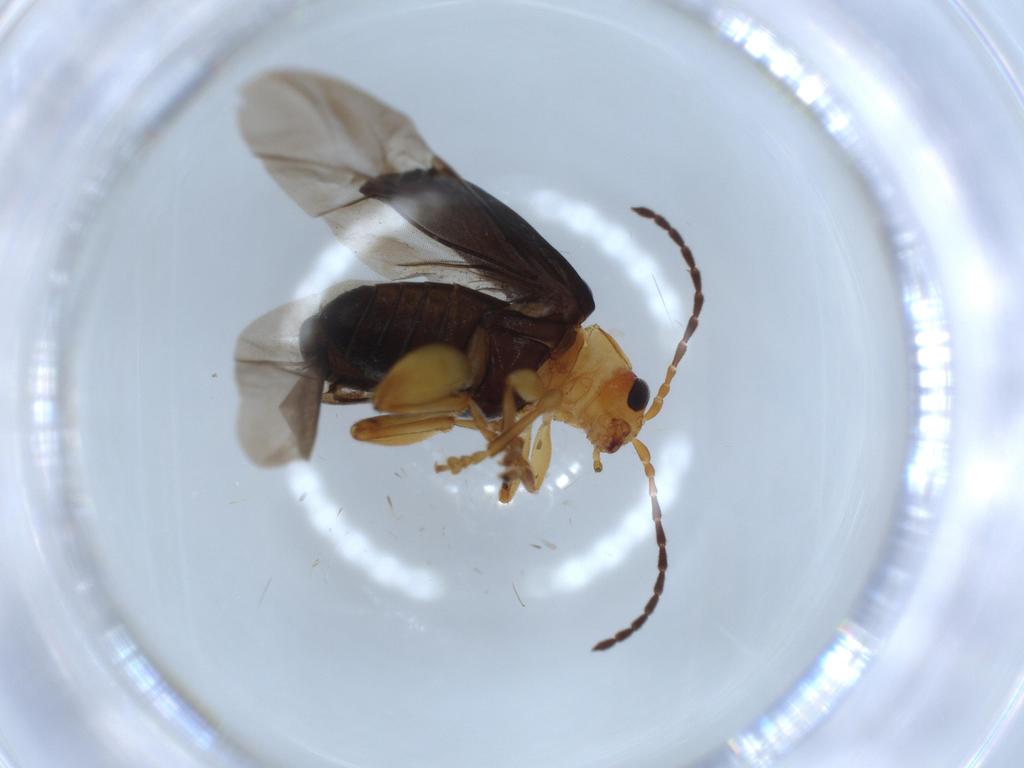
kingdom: Animalia
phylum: Arthropoda
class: Insecta
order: Coleoptera
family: Chrysomelidae
